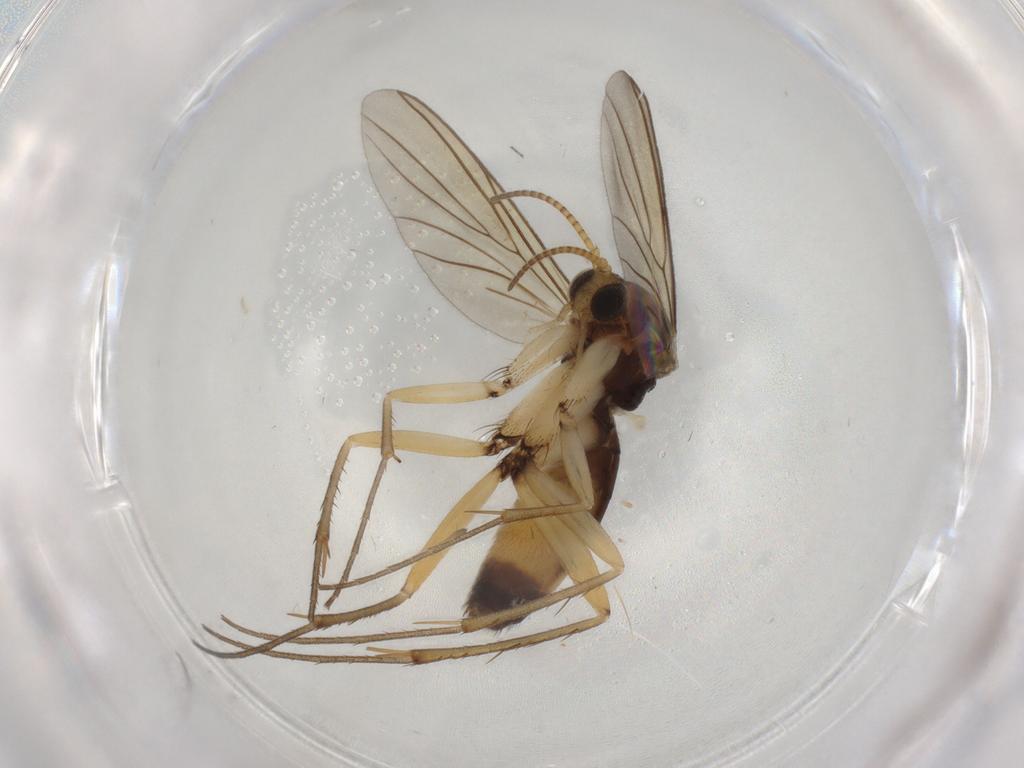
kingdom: Animalia
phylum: Arthropoda
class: Insecta
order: Diptera
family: Mycetophilidae
